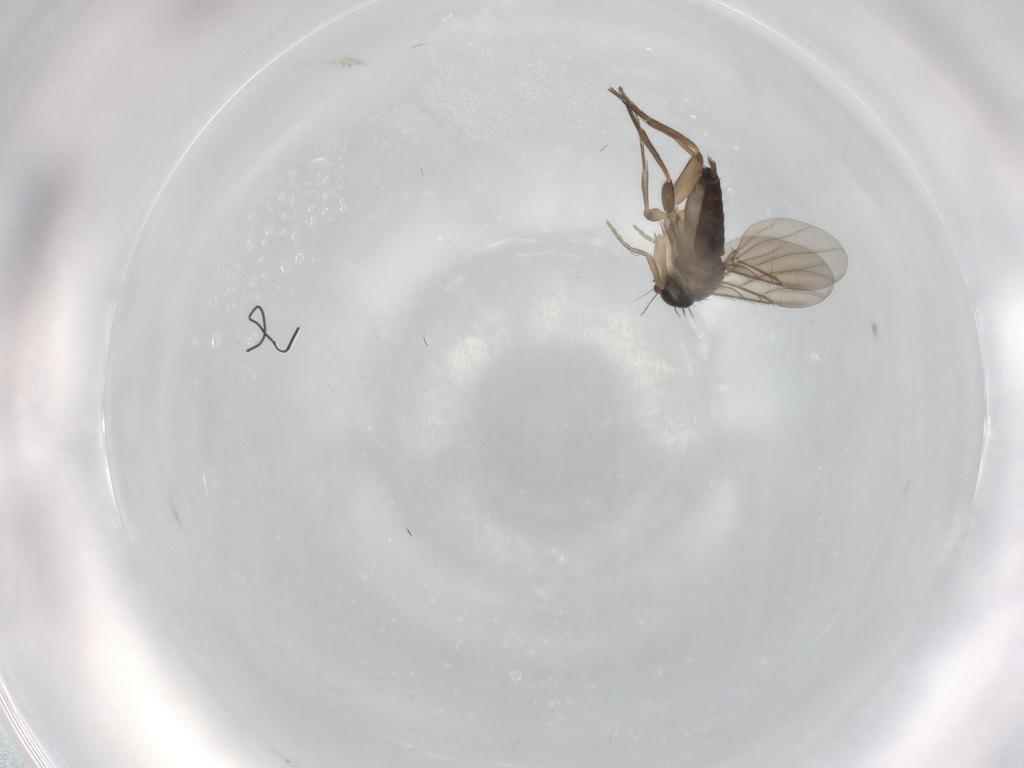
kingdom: Animalia
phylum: Arthropoda
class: Insecta
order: Diptera
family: Phoridae
